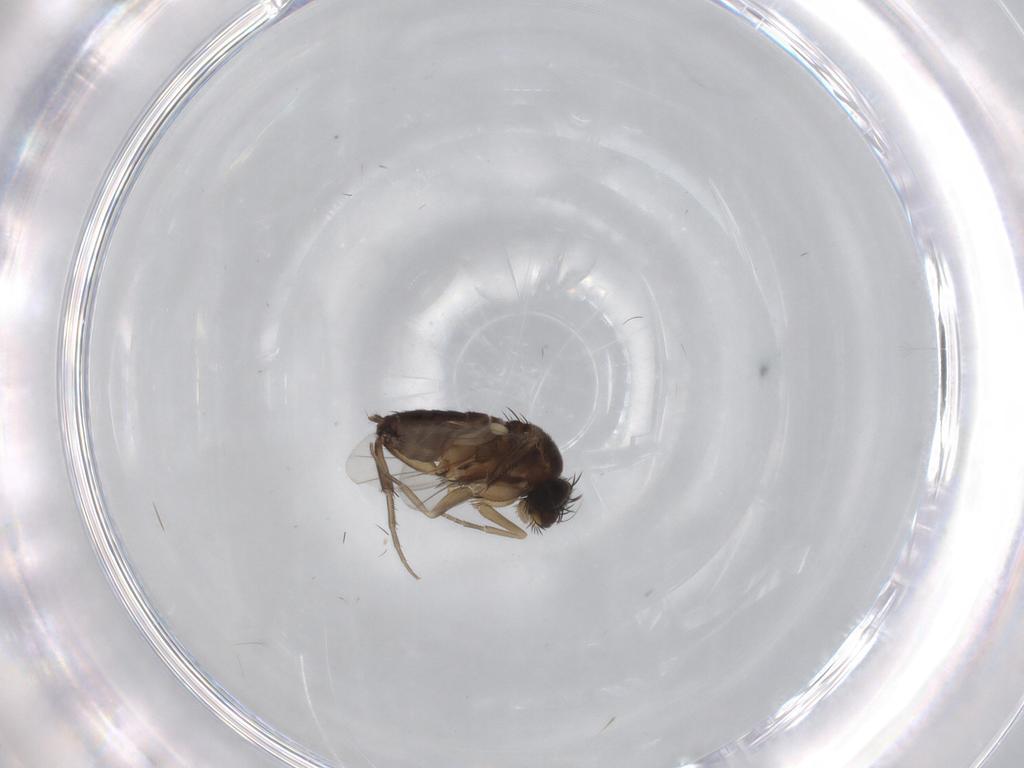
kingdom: Animalia
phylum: Arthropoda
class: Insecta
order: Diptera
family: Phoridae
